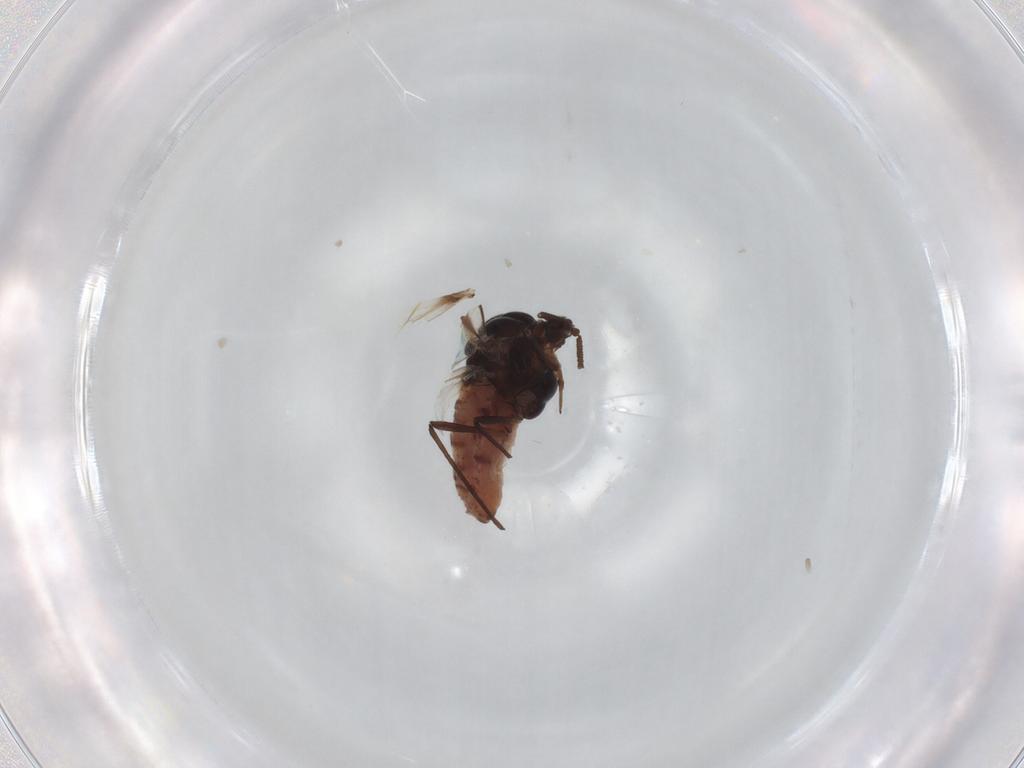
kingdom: Animalia
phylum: Arthropoda
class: Insecta
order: Hemiptera
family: Aphididae
